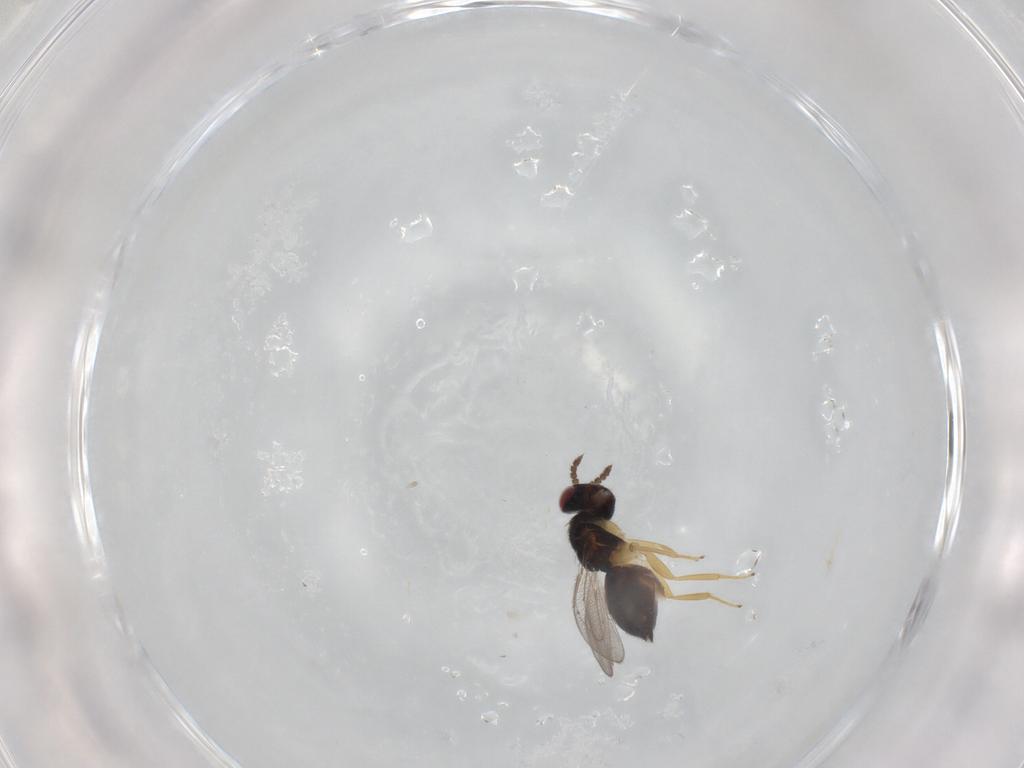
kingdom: Animalia
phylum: Arthropoda
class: Insecta
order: Hymenoptera
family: Eulophidae
